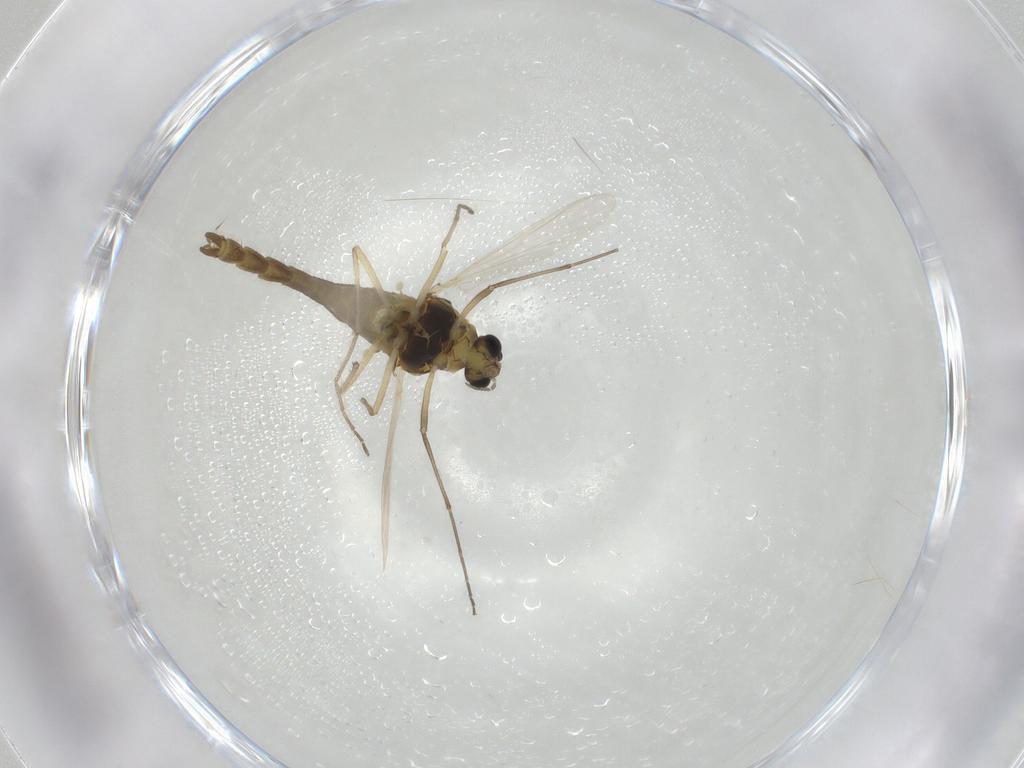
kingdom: Animalia
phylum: Arthropoda
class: Insecta
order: Diptera
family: Chironomidae
